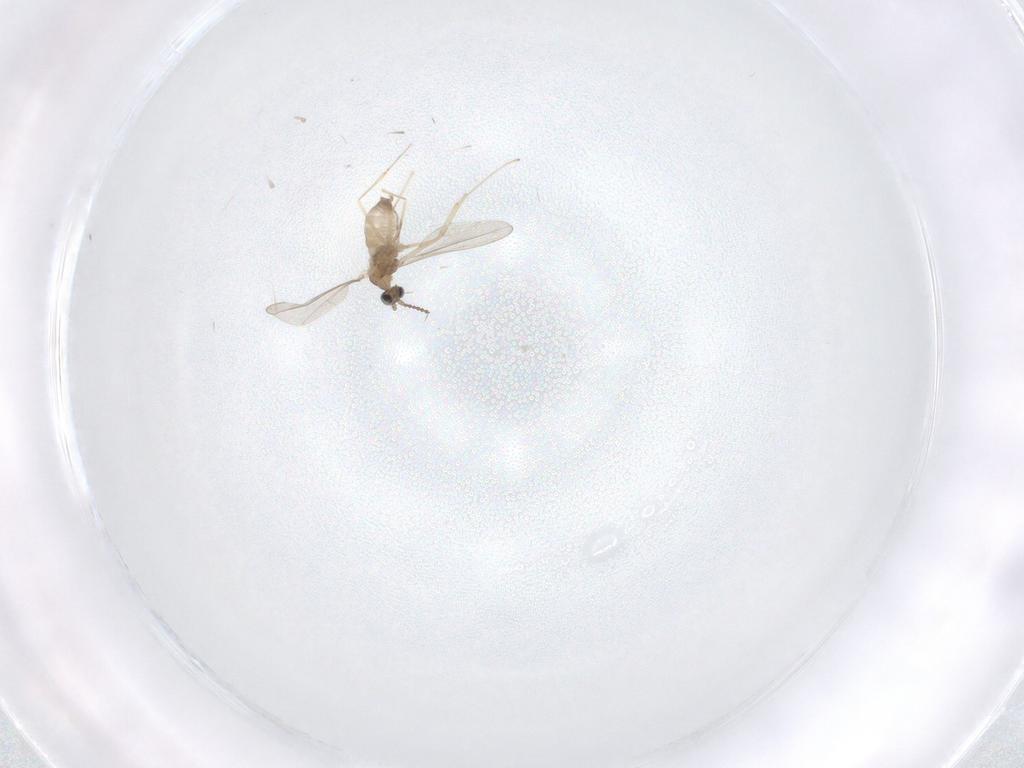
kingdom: Animalia
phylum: Arthropoda
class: Insecta
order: Diptera
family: Cecidomyiidae
